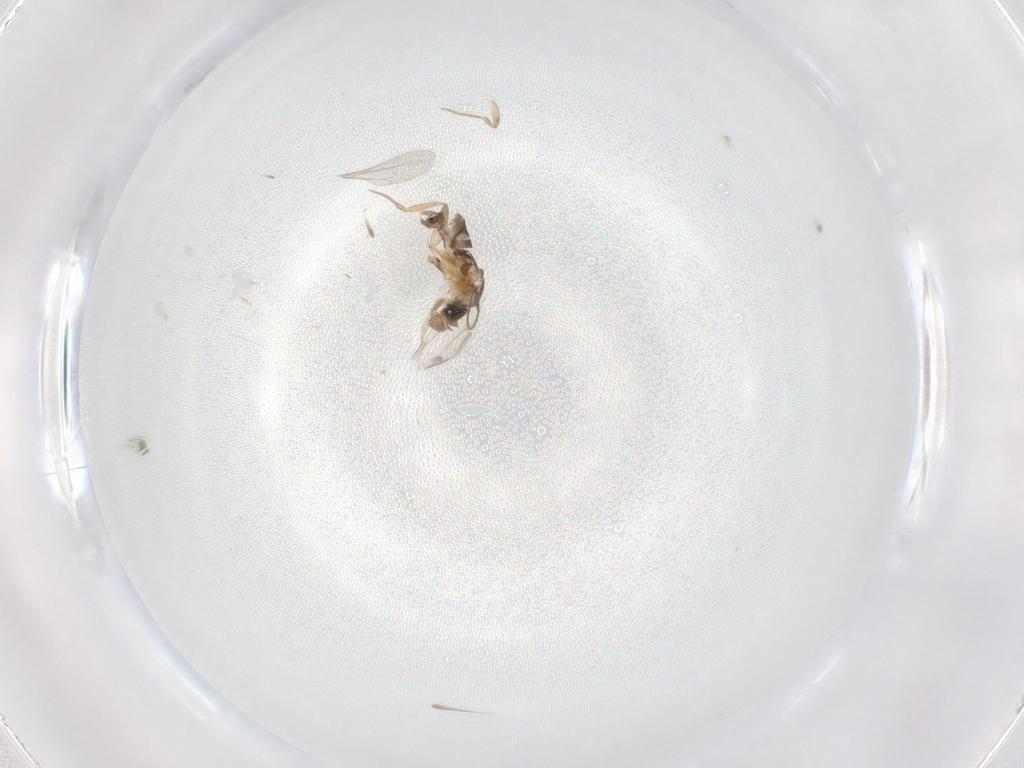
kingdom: Animalia
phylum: Arthropoda
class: Insecta
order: Diptera
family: Phoridae
